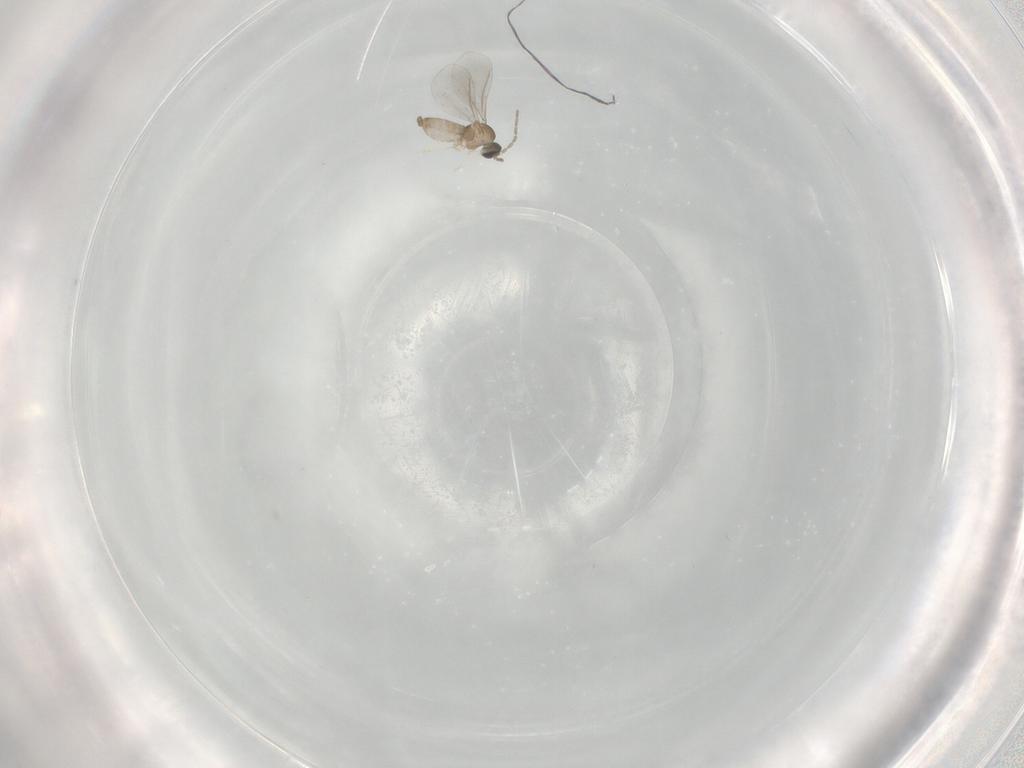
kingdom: Animalia
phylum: Arthropoda
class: Insecta
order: Diptera
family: Cecidomyiidae
